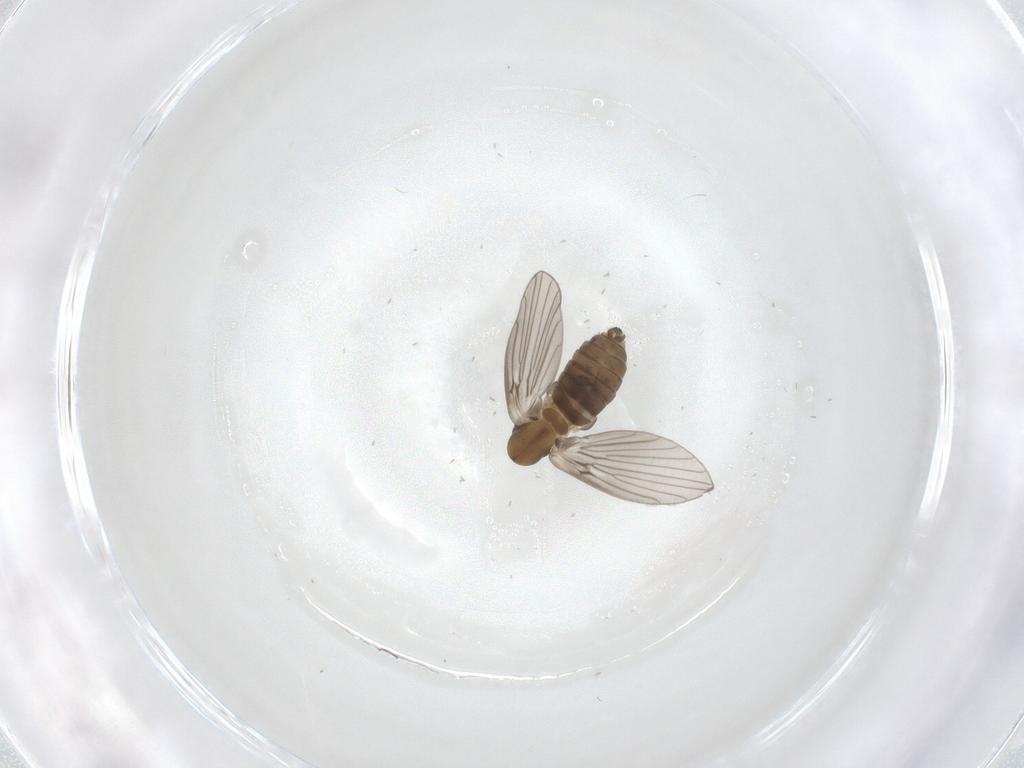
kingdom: Animalia
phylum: Arthropoda
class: Insecta
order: Diptera
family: Psychodidae
